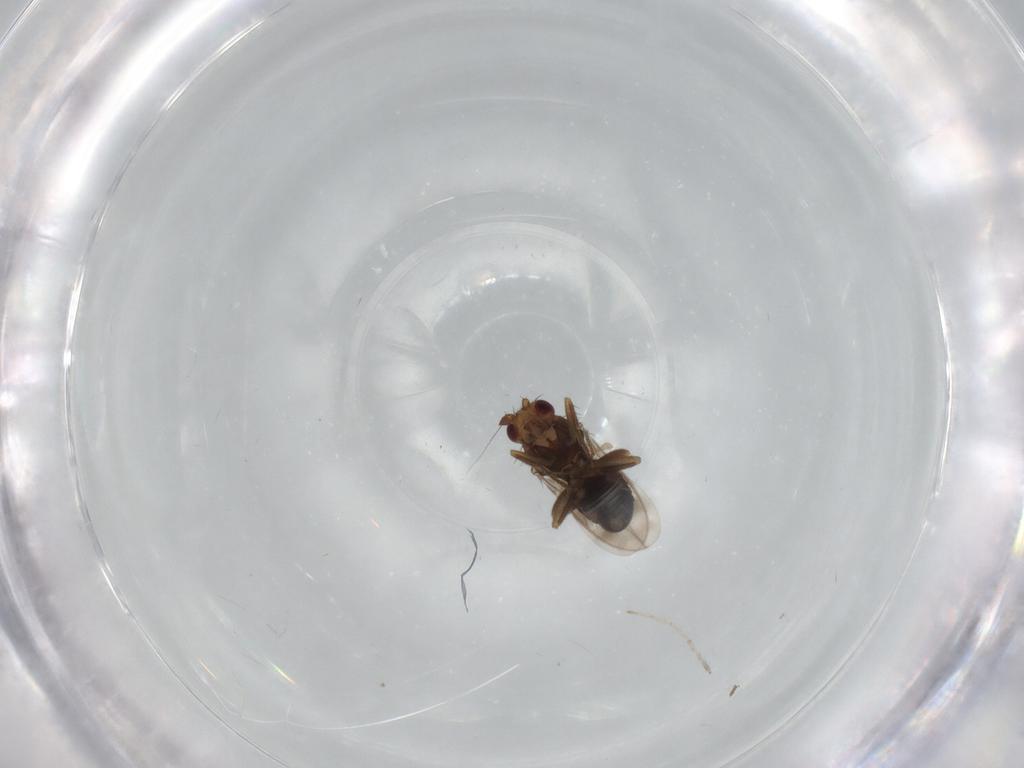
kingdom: Animalia
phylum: Arthropoda
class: Insecta
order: Diptera
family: Sphaeroceridae
